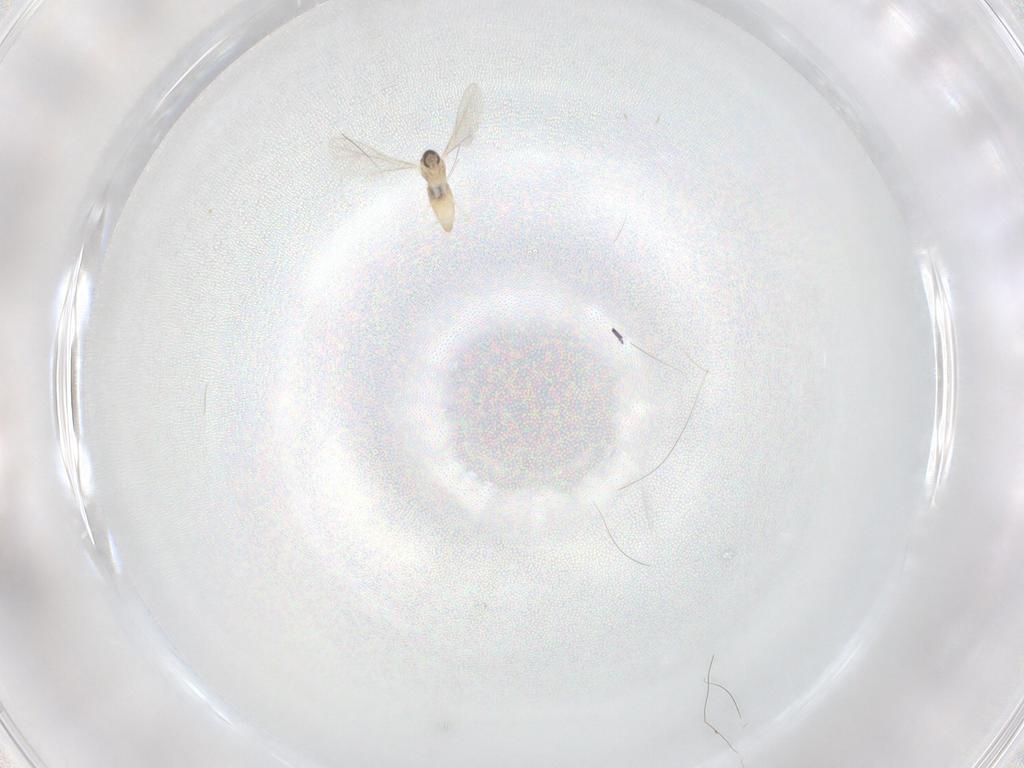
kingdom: Animalia
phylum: Arthropoda
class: Insecta
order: Diptera
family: Cecidomyiidae
